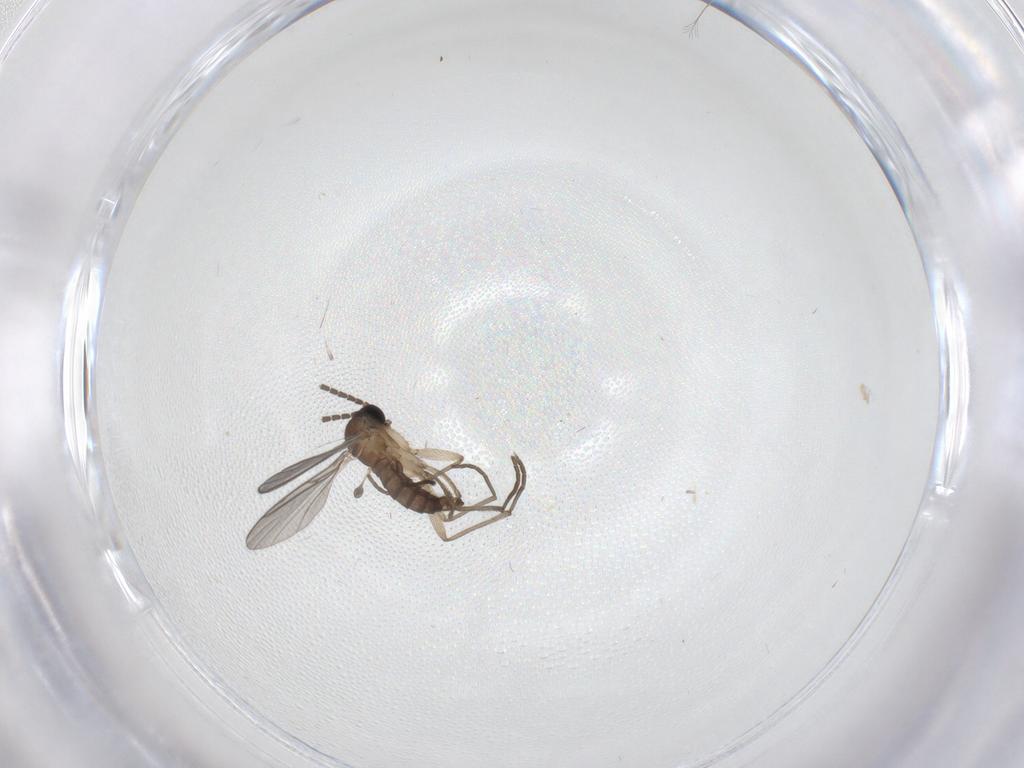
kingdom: Animalia
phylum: Arthropoda
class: Insecta
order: Diptera
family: Sciaridae
